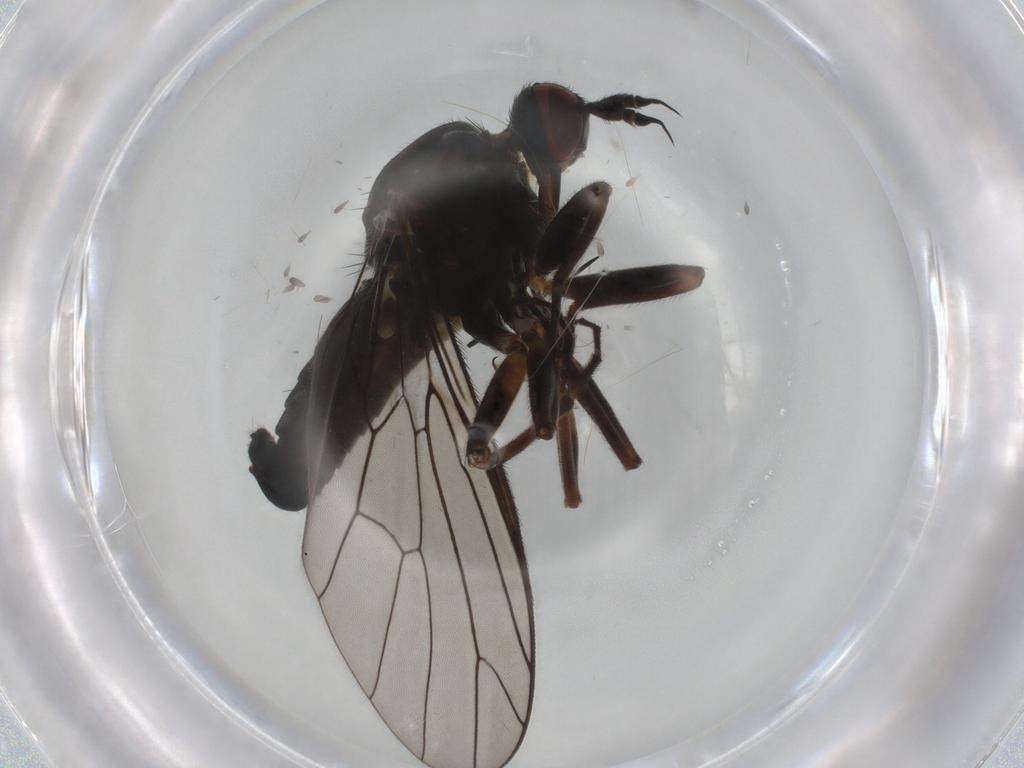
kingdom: Animalia
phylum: Arthropoda
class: Insecta
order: Diptera
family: Empididae
